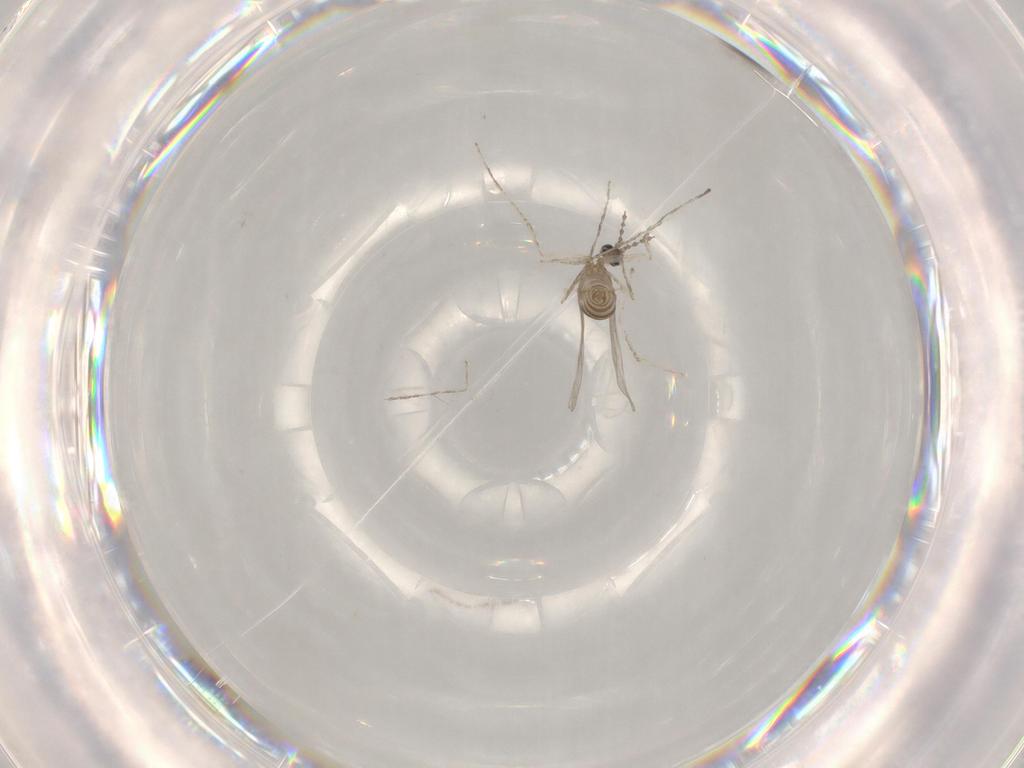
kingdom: Animalia
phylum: Arthropoda
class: Insecta
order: Diptera
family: Cecidomyiidae
